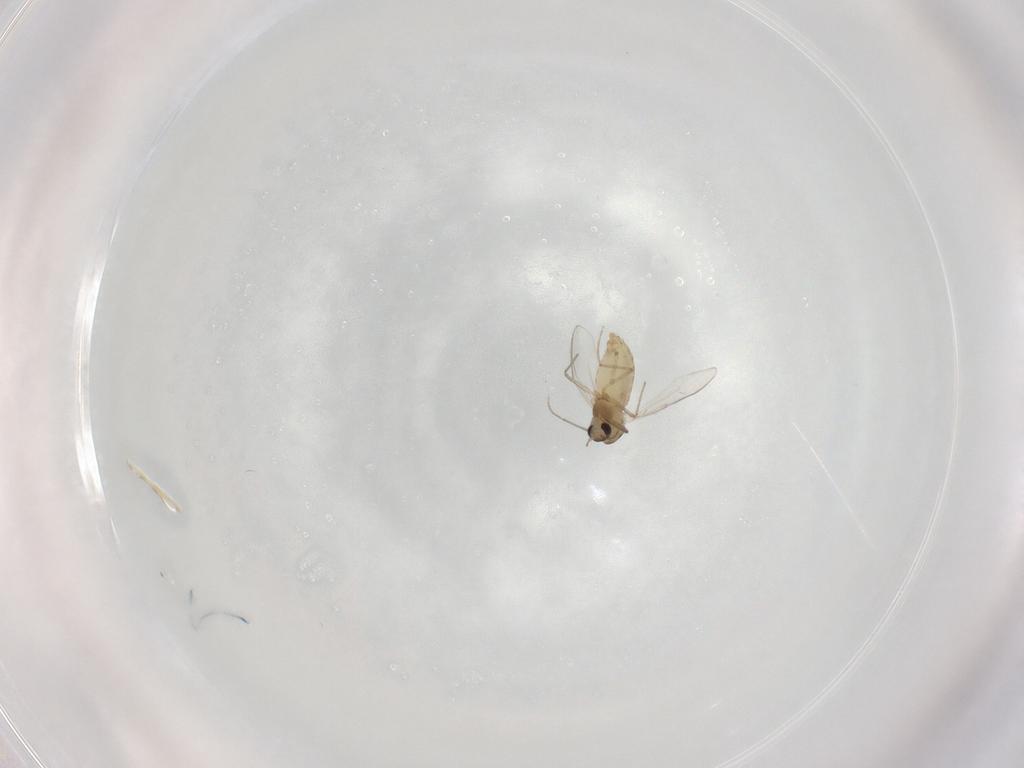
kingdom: Animalia
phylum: Arthropoda
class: Insecta
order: Diptera
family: Chironomidae
